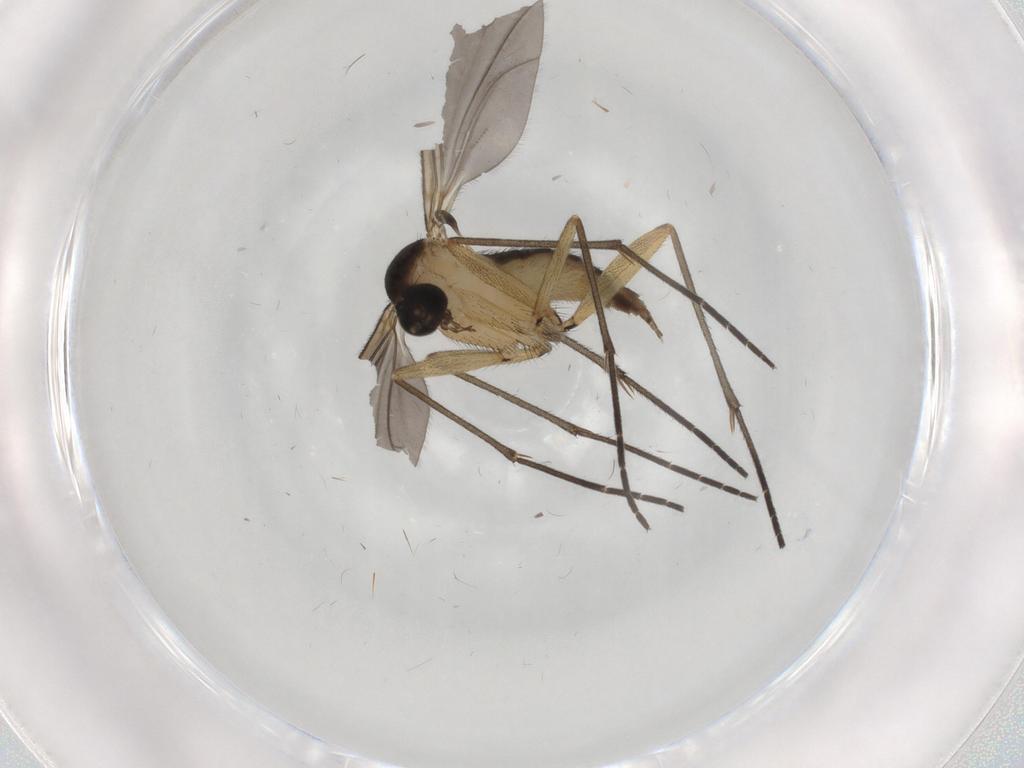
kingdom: Animalia
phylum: Arthropoda
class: Insecta
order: Diptera
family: Sciaridae
